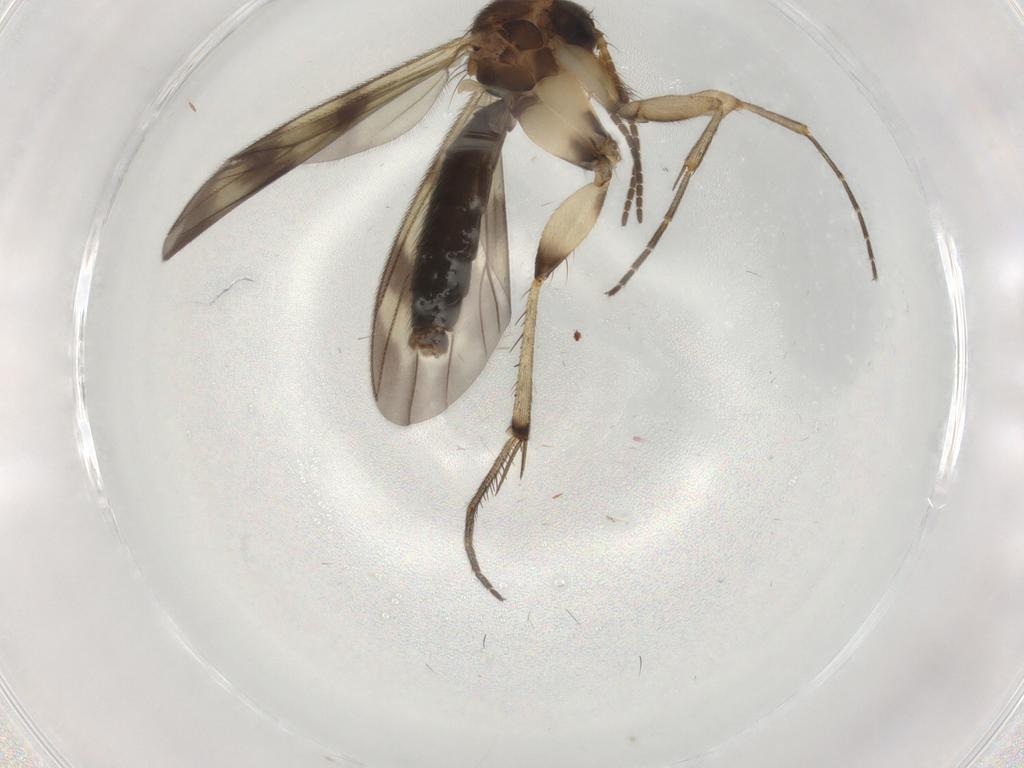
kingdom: Animalia
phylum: Arthropoda
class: Insecta
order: Diptera
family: Mycetophilidae
